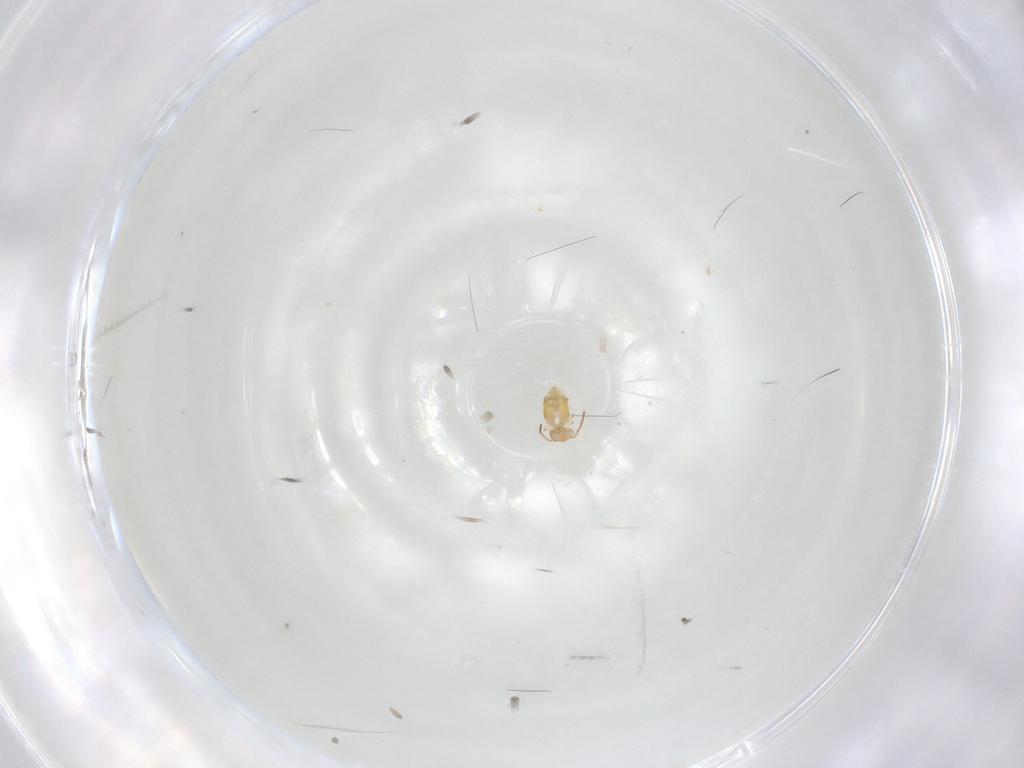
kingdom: Animalia
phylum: Arthropoda
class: Collembola
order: Symphypleona
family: Bourletiellidae
